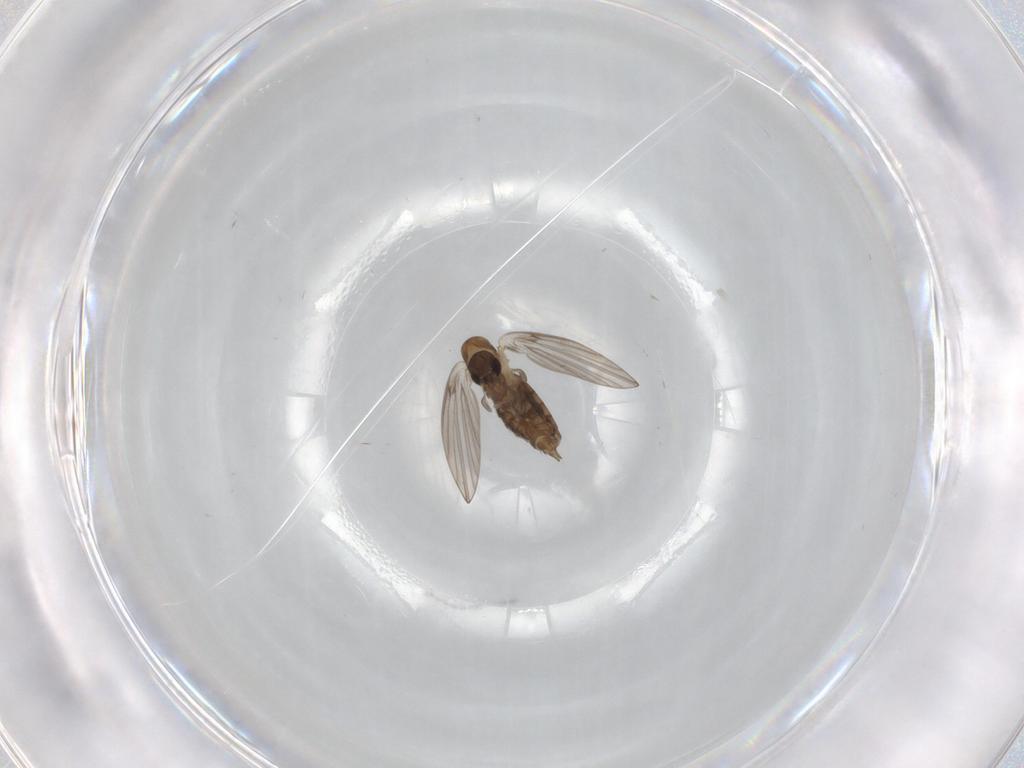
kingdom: Animalia
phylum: Arthropoda
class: Insecta
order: Diptera
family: Psychodidae
